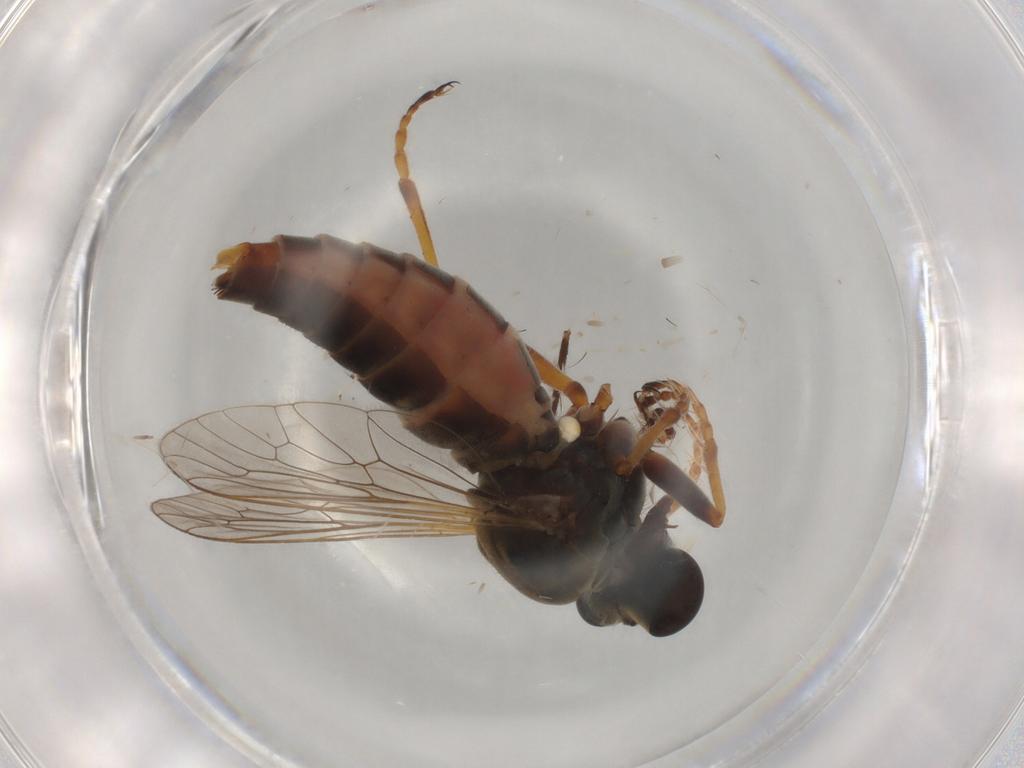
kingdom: Animalia
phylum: Arthropoda
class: Insecta
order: Diptera
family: Asilidae
